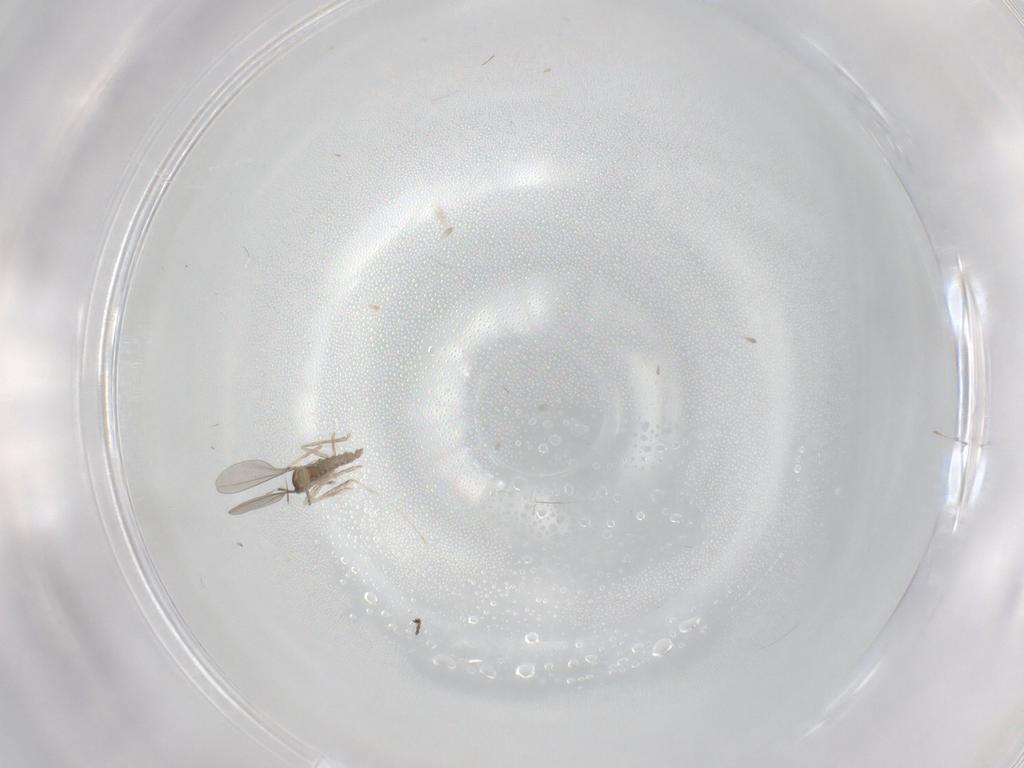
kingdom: Animalia
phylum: Arthropoda
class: Insecta
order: Diptera
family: Ceratopogonidae
